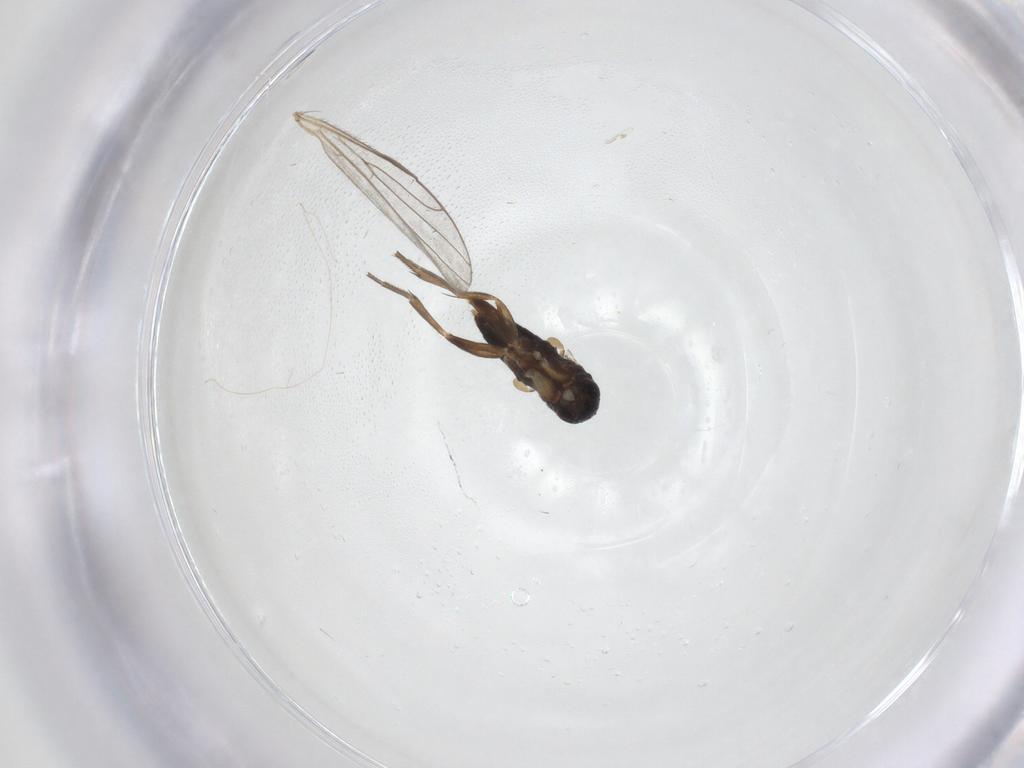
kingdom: Animalia
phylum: Arthropoda
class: Insecta
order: Diptera
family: Phoridae
